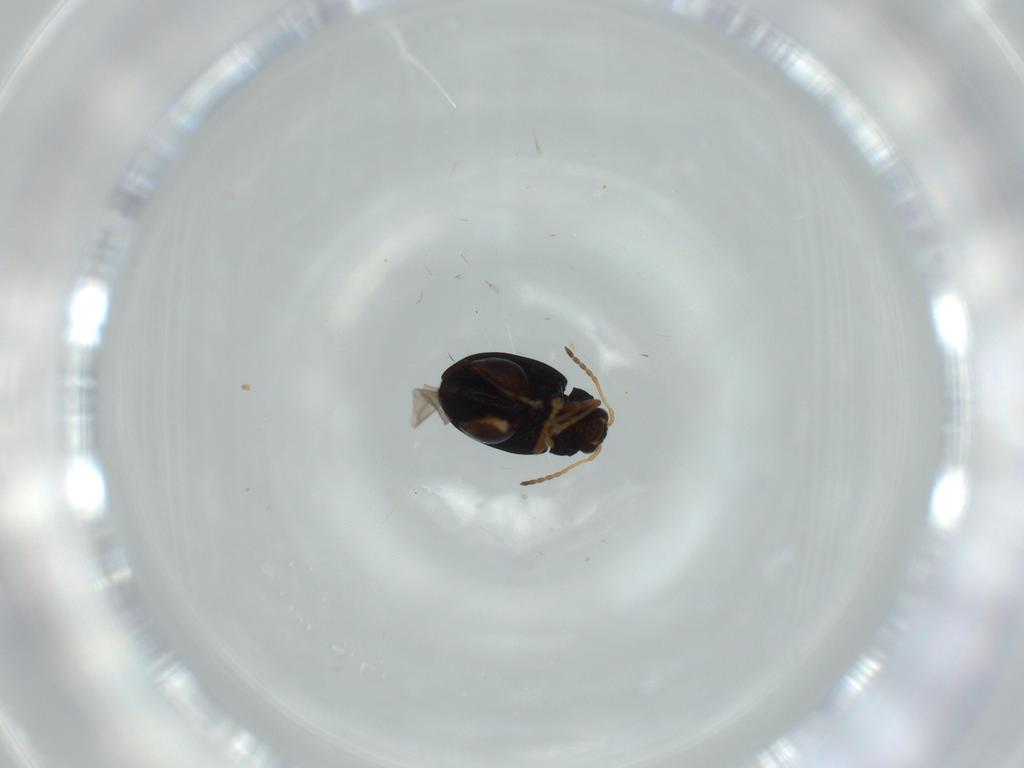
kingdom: Animalia
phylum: Arthropoda
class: Insecta
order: Coleoptera
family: Chrysomelidae
